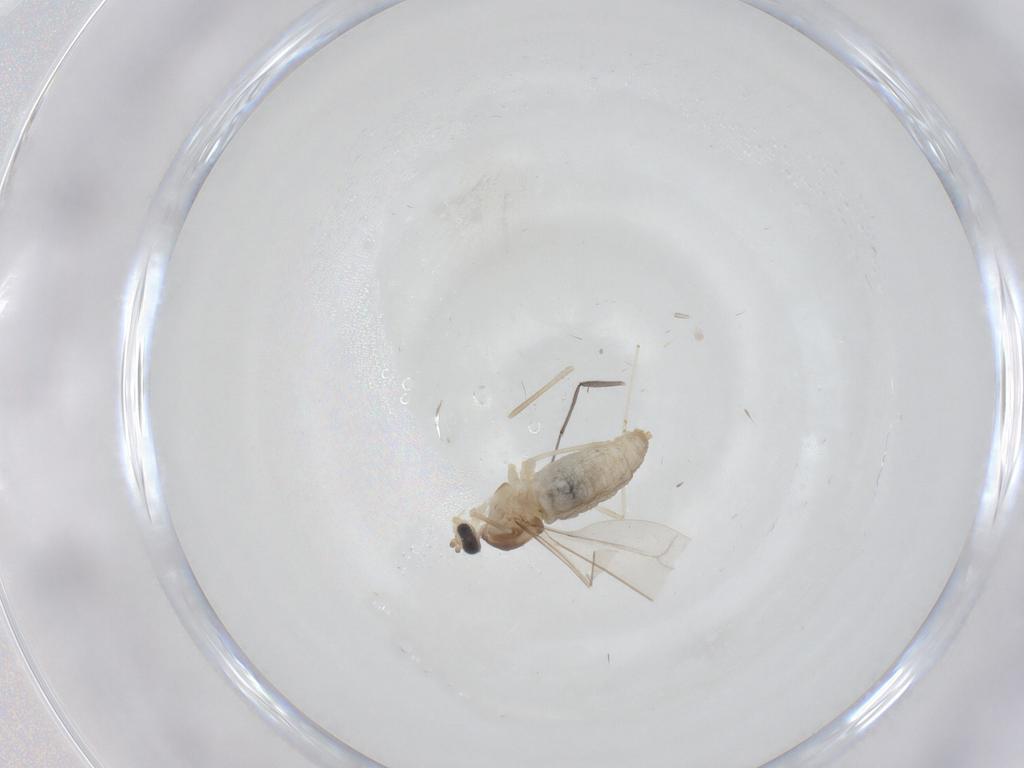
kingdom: Animalia
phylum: Arthropoda
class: Insecta
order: Diptera
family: Cecidomyiidae
